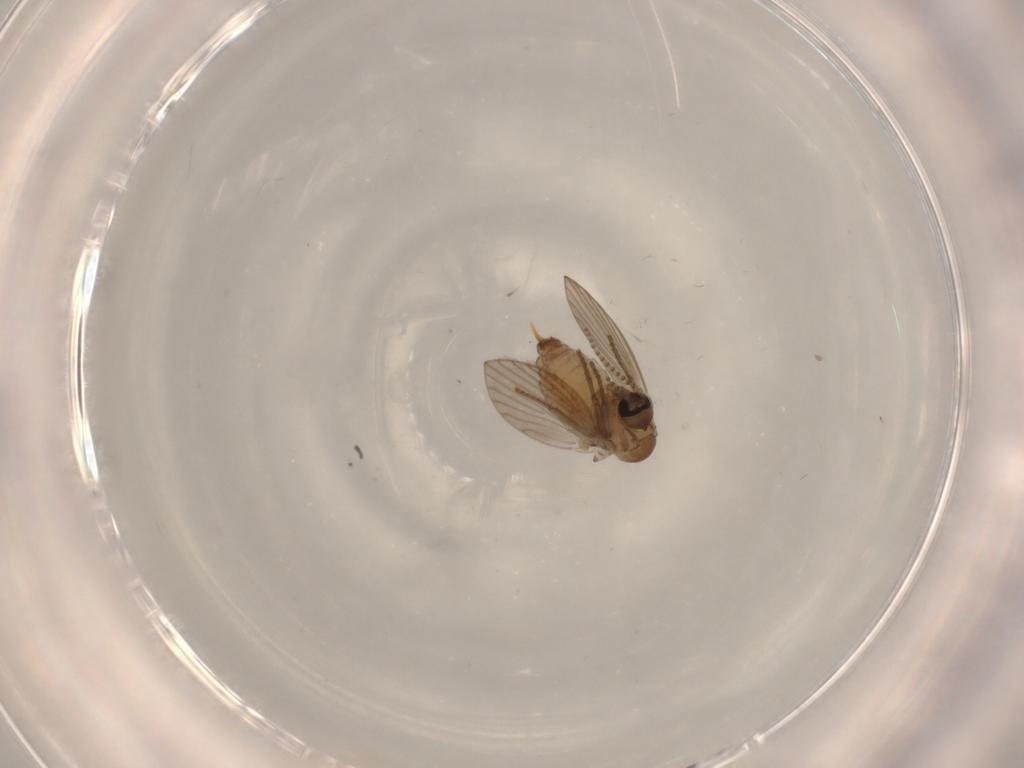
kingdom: Animalia
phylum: Arthropoda
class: Insecta
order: Diptera
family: Psychodidae
